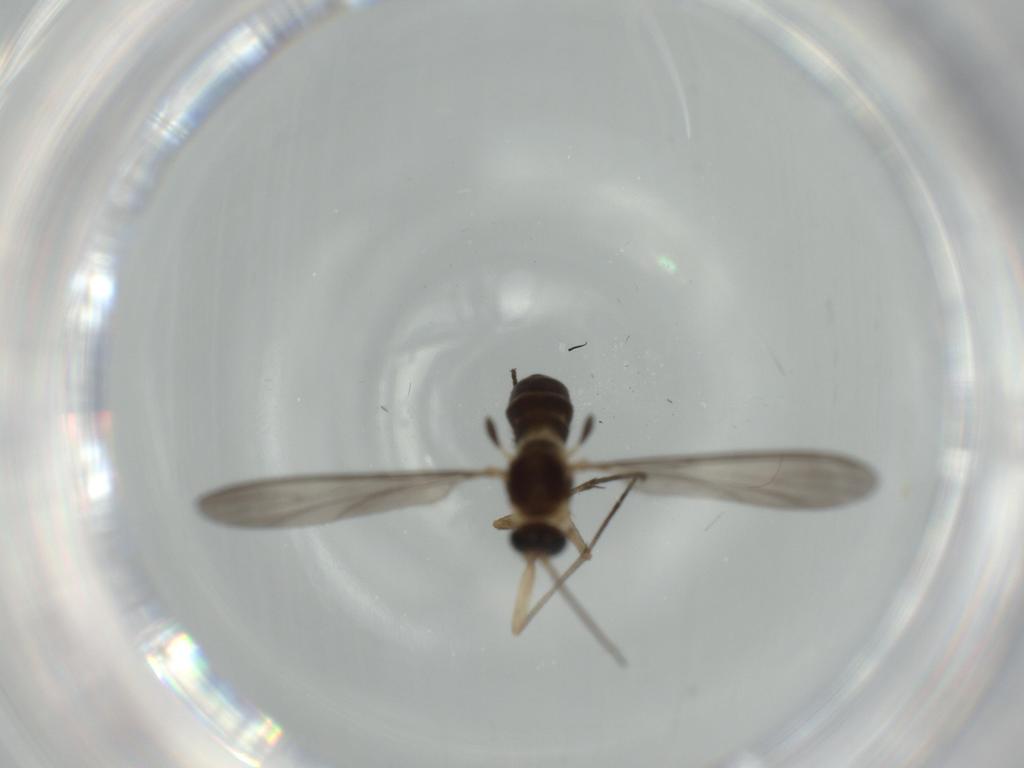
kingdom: Animalia
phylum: Arthropoda
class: Insecta
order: Diptera
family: Sciaridae
